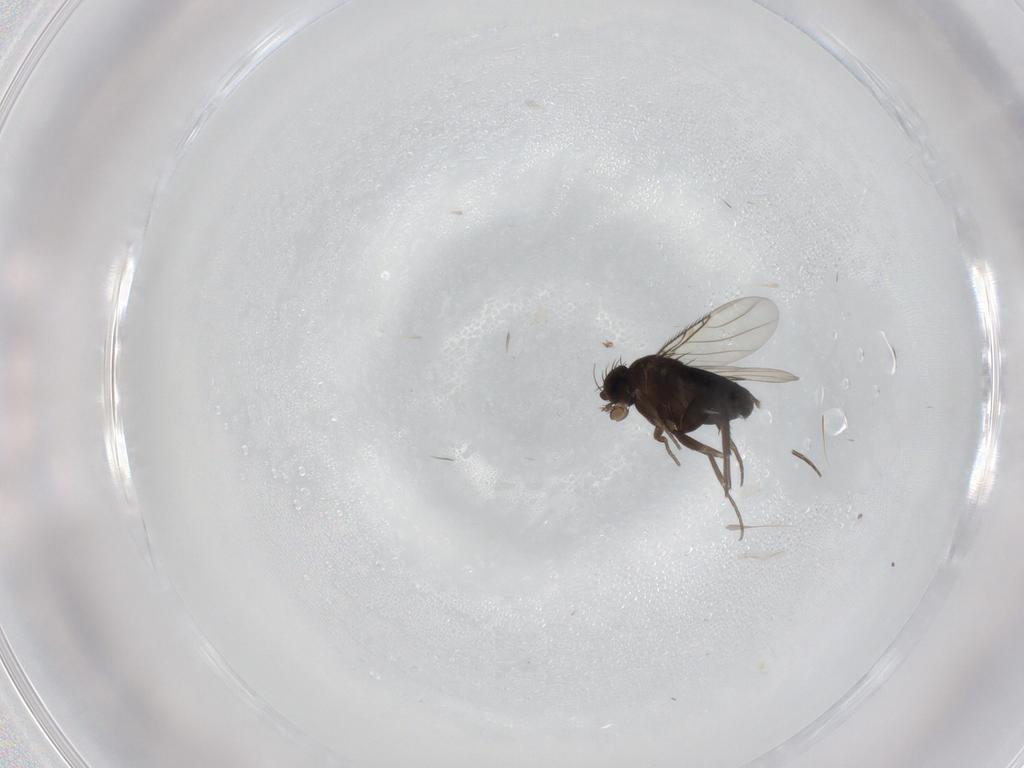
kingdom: Animalia
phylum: Arthropoda
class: Insecta
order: Diptera
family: Phoridae
